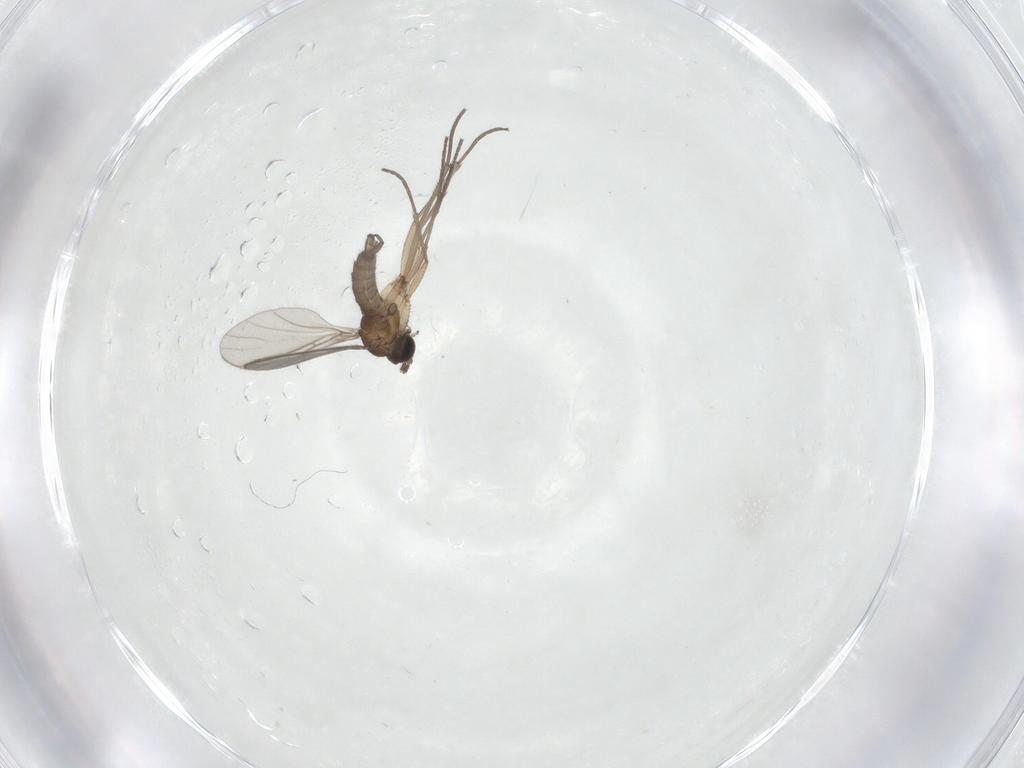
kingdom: Animalia
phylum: Arthropoda
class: Insecta
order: Diptera
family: Sciaridae
